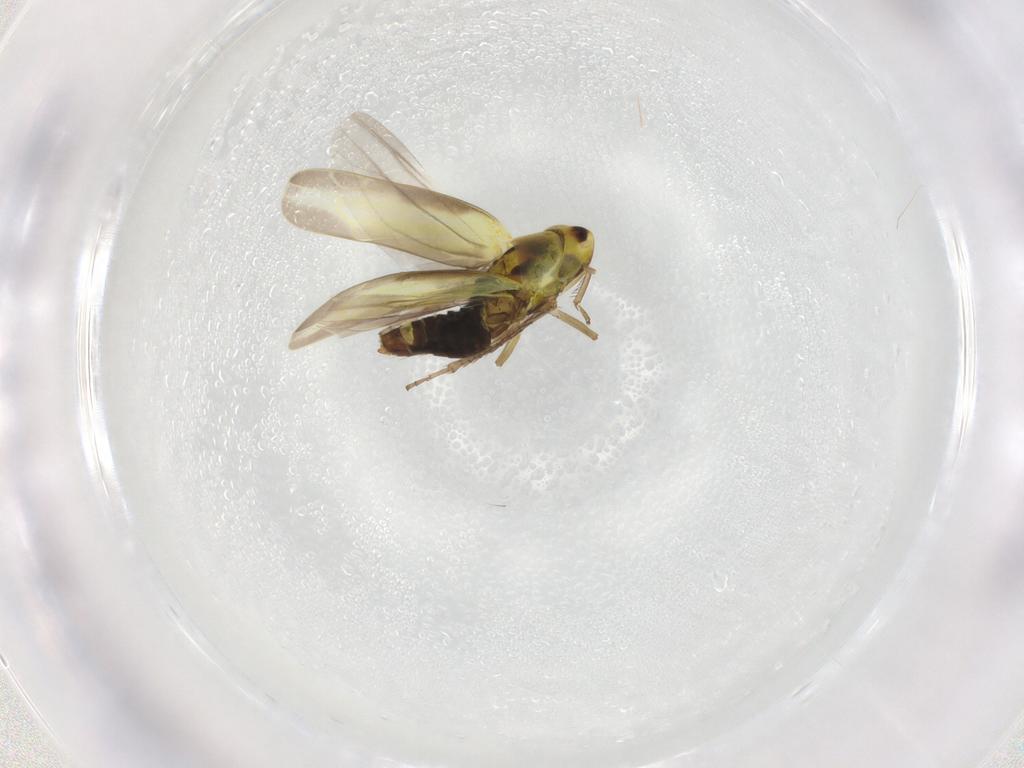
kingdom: Animalia
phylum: Arthropoda
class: Insecta
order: Hemiptera
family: Cicadellidae
